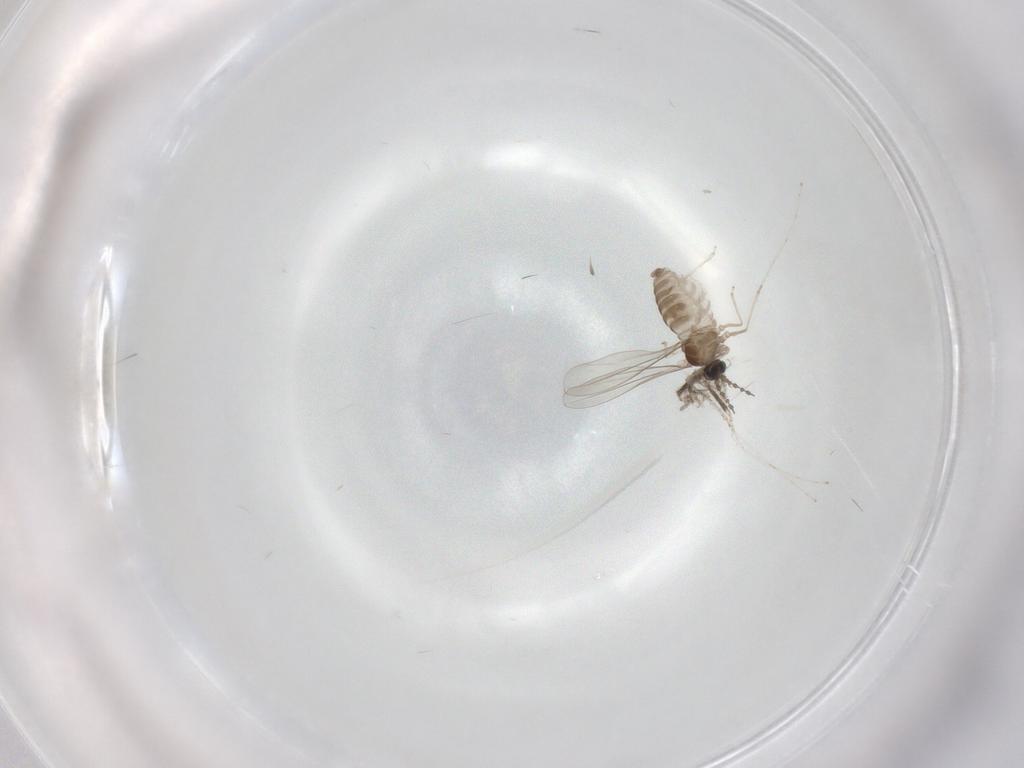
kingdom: Animalia
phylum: Arthropoda
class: Insecta
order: Diptera
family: Cecidomyiidae
